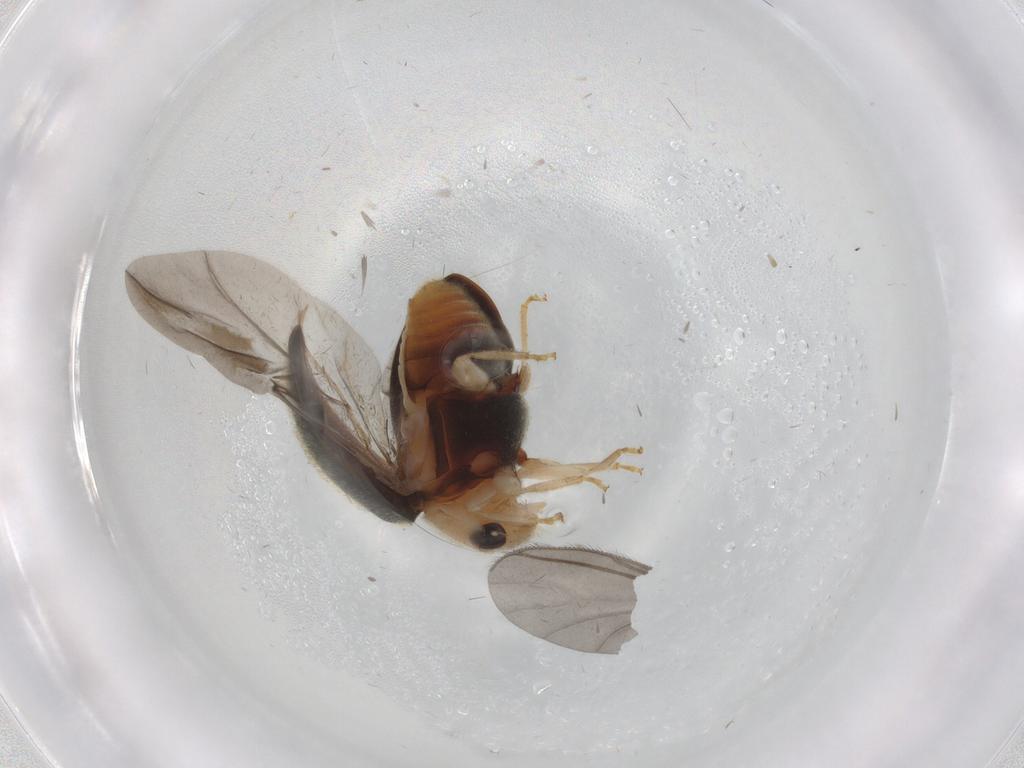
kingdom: Animalia
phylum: Arthropoda
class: Insecta
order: Coleoptera
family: Coccinellidae
